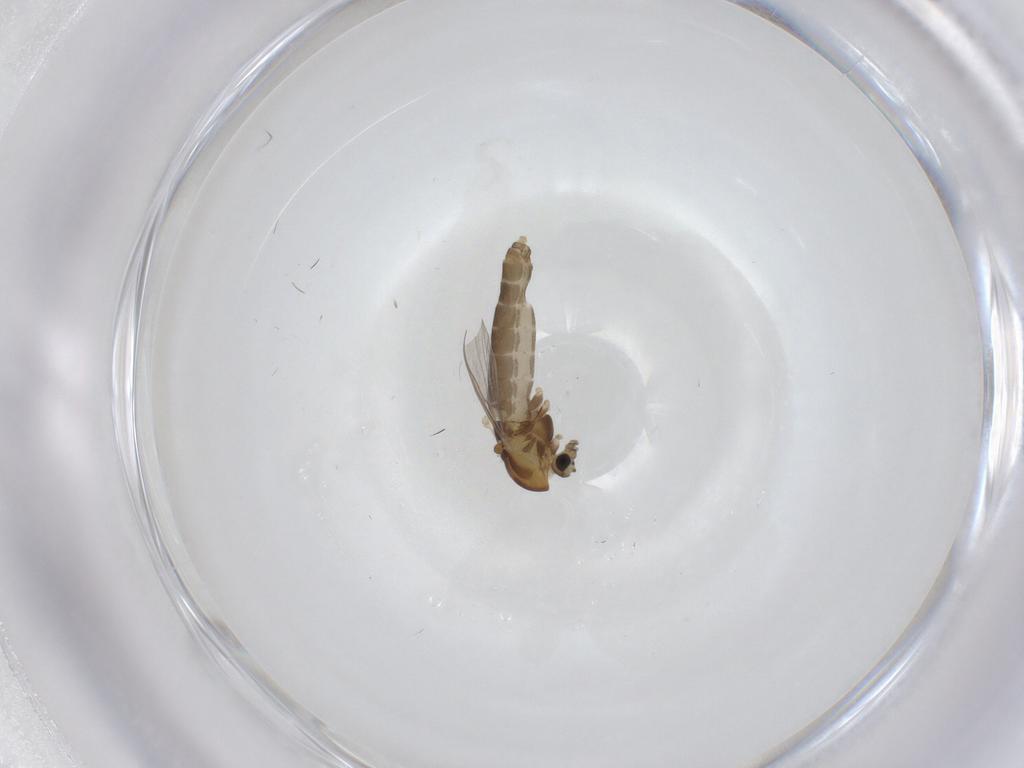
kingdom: Animalia
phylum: Arthropoda
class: Insecta
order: Diptera
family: Chironomidae
